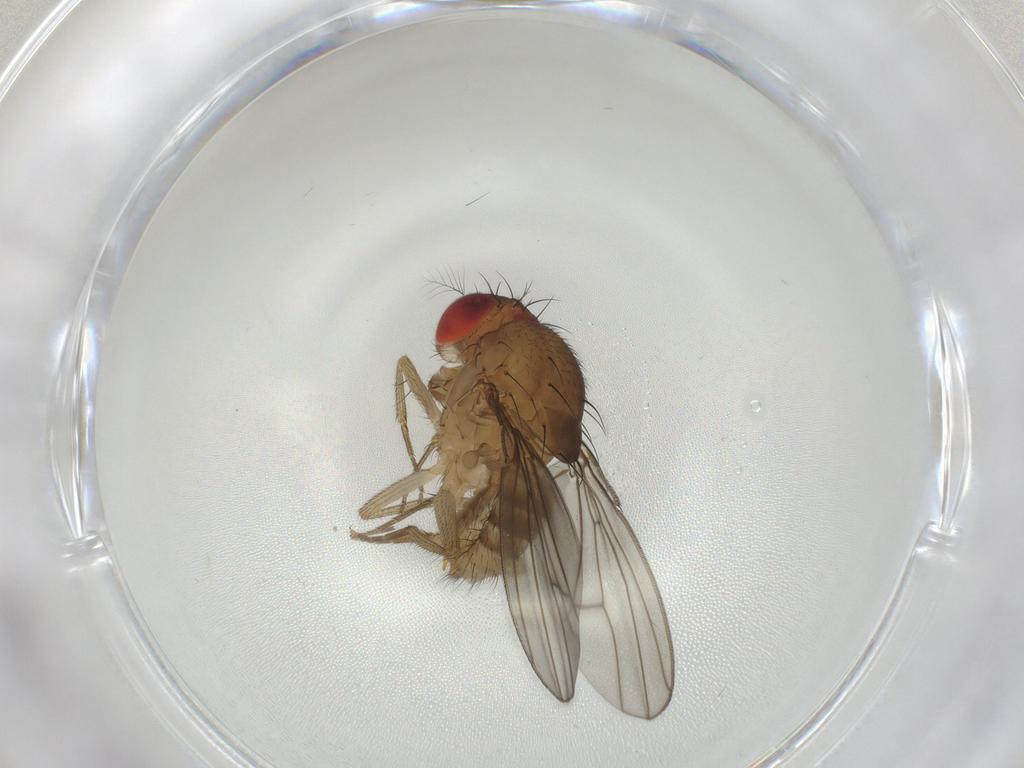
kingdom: Animalia
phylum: Arthropoda
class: Insecta
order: Diptera
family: Drosophilidae
